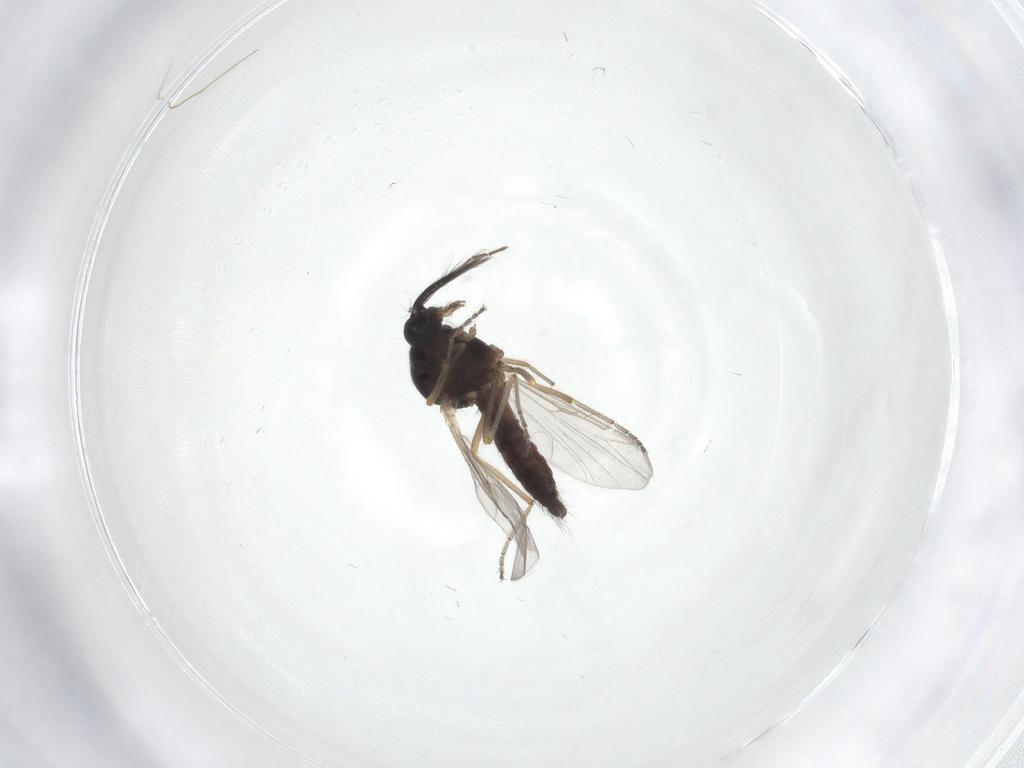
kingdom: Animalia
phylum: Arthropoda
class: Insecta
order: Diptera
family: Ceratopogonidae
